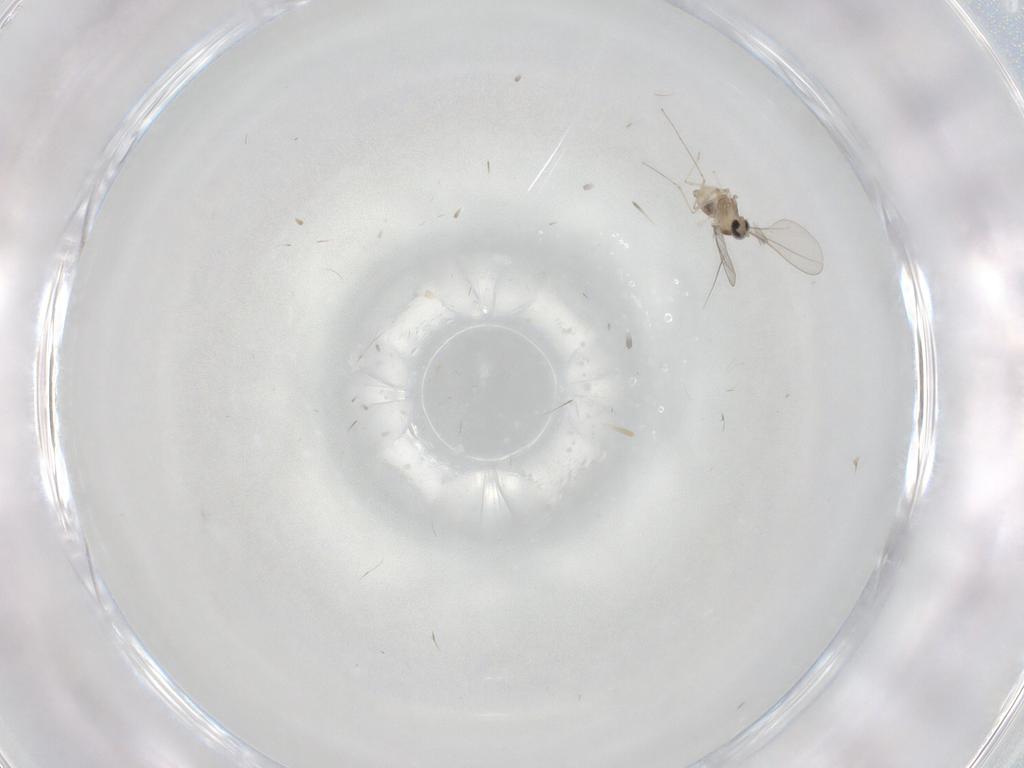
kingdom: Animalia
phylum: Arthropoda
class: Insecta
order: Diptera
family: Cecidomyiidae
